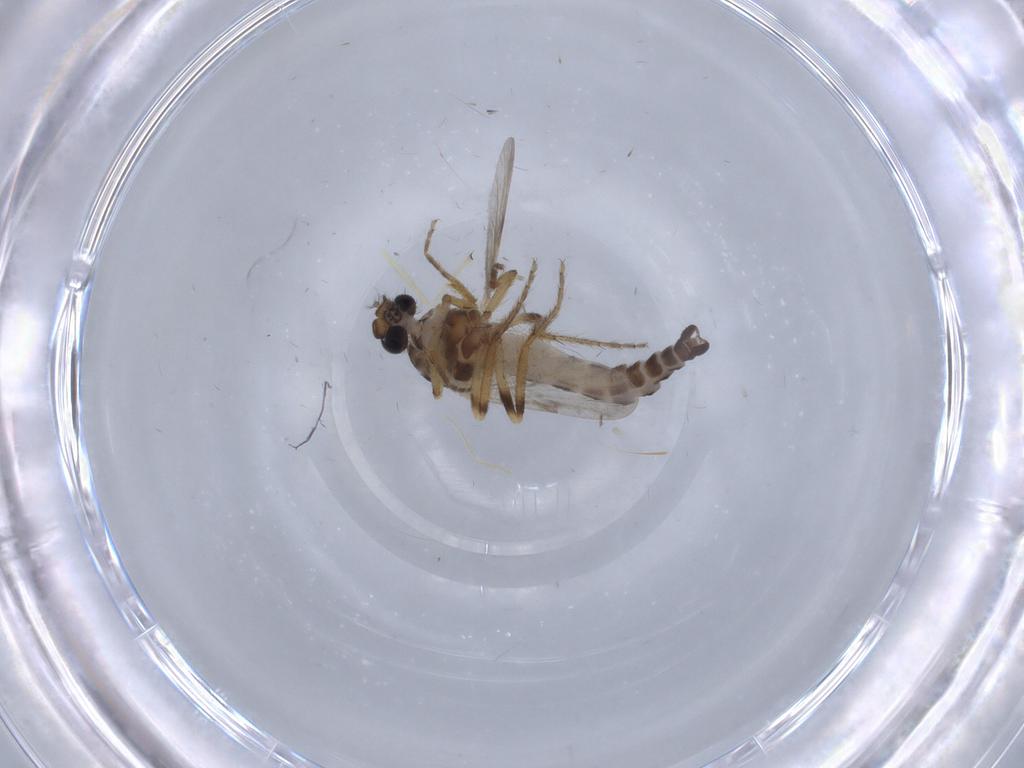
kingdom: Animalia
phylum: Arthropoda
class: Insecta
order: Diptera
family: Ceratopogonidae
